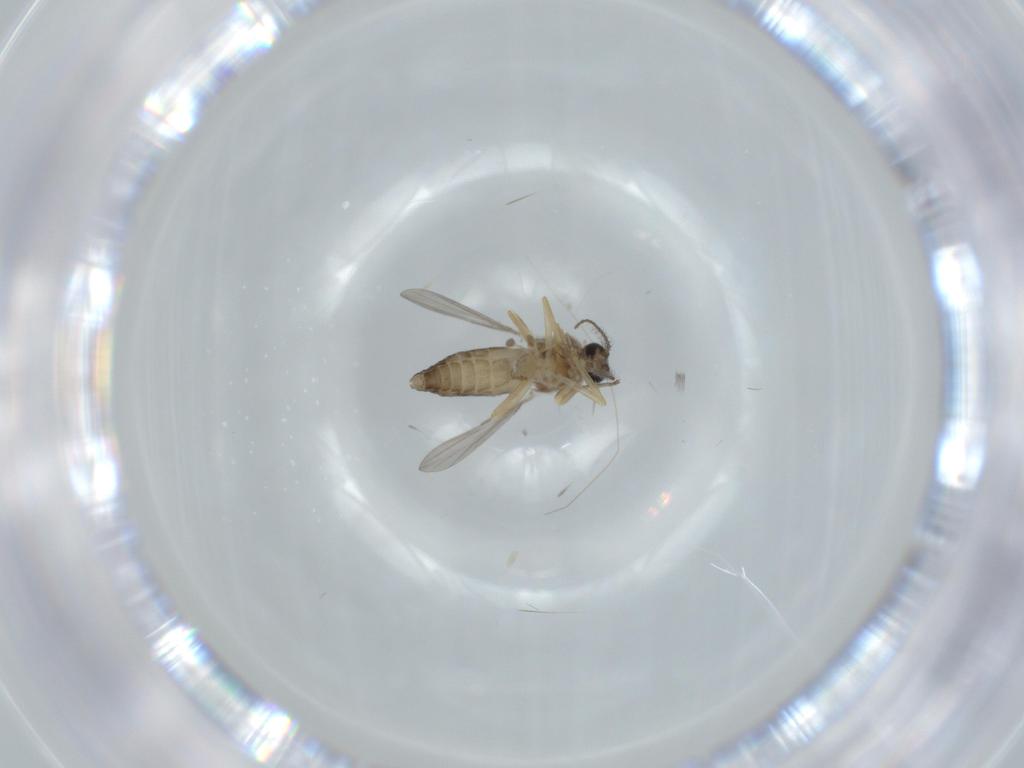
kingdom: Animalia
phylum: Arthropoda
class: Insecta
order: Diptera
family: Ceratopogonidae
